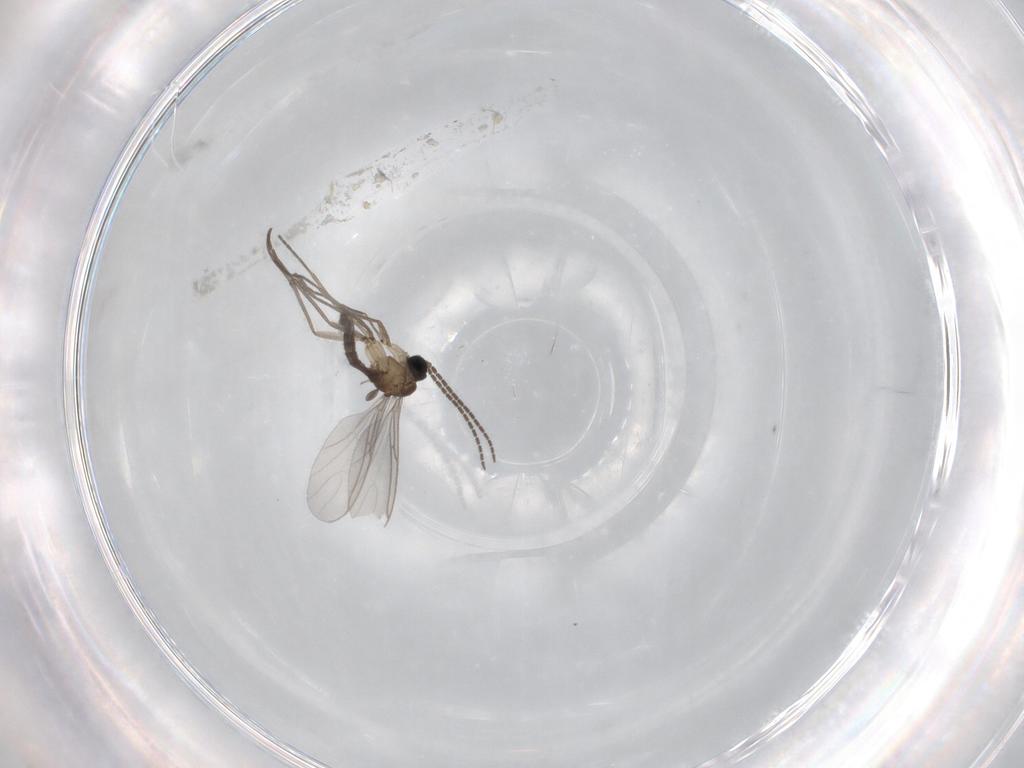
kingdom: Animalia
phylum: Arthropoda
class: Insecta
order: Diptera
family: Sciaridae
